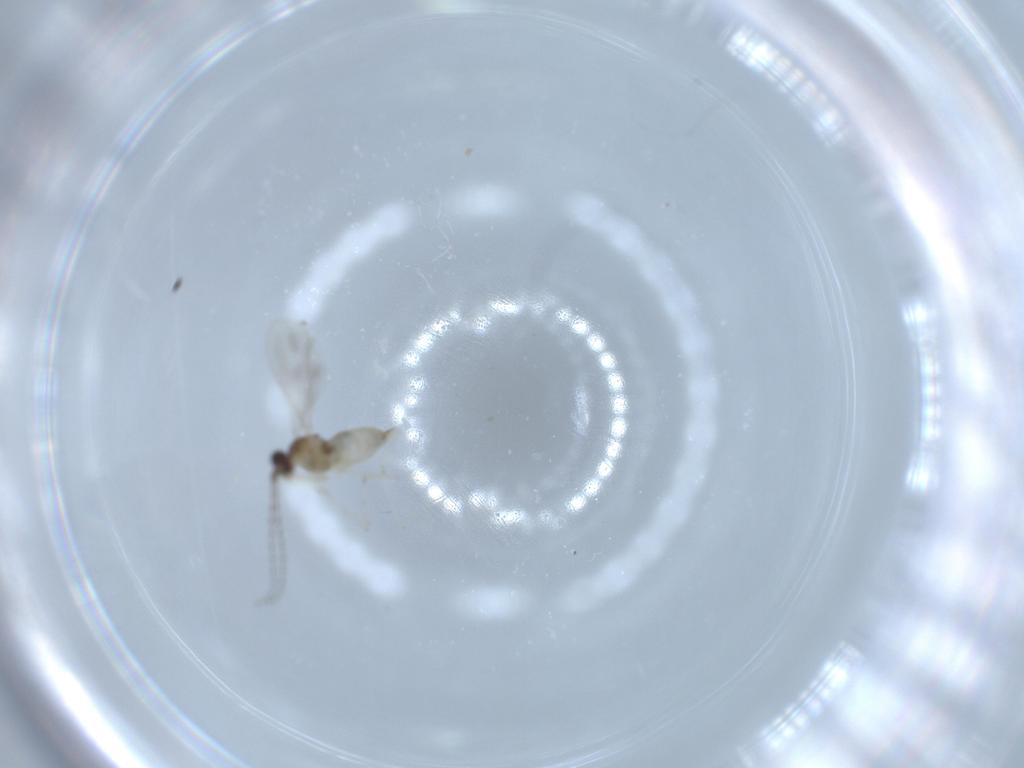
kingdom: Animalia
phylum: Arthropoda
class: Insecta
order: Diptera
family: Cecidomyiidae
